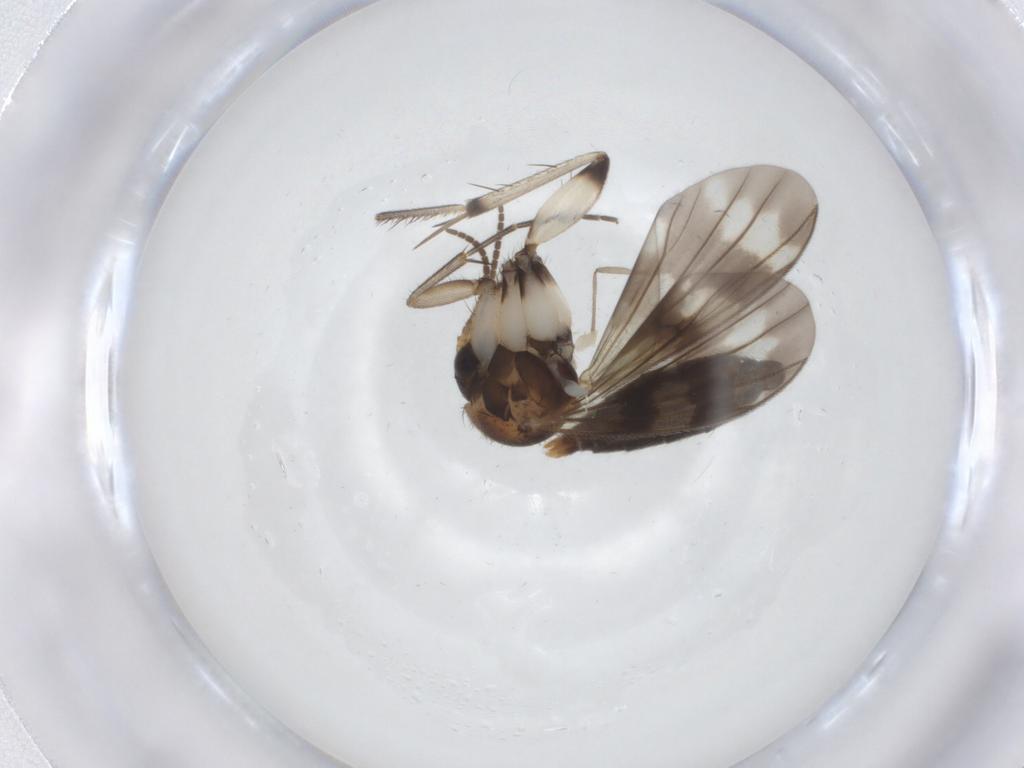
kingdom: Animalia
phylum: Arthropoda
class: Insecta
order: Diptera
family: Mycetophilidae
